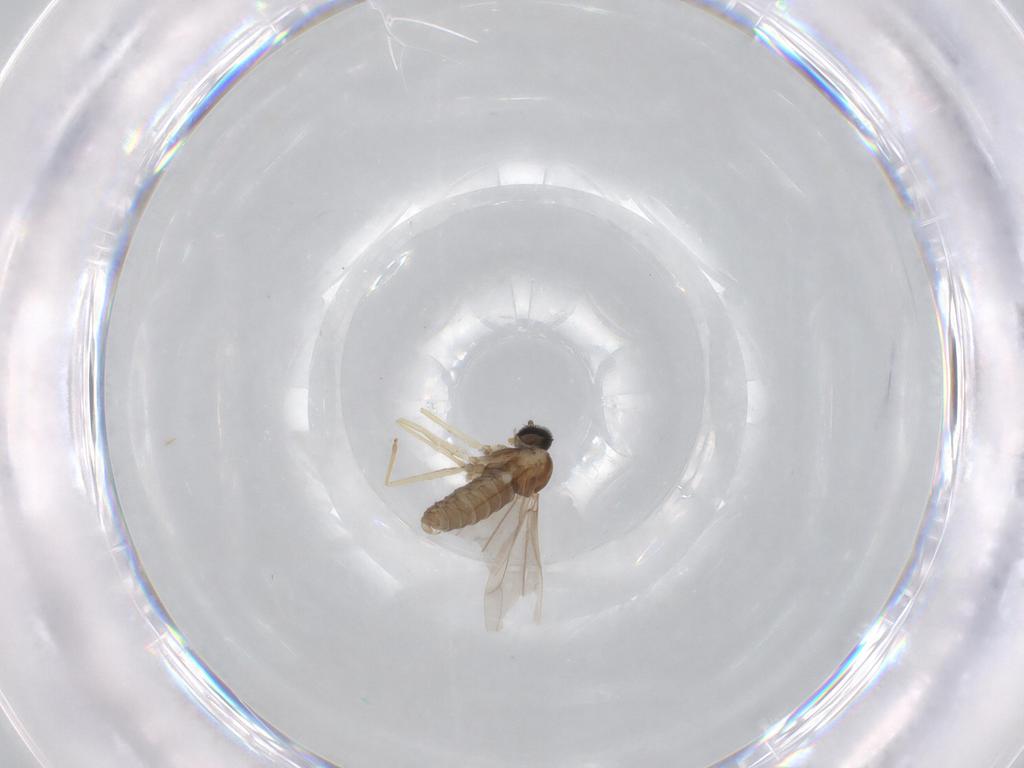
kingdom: Animalia
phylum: Arthropoda
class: Insecta
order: Diptera
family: Cecidomyiidae
